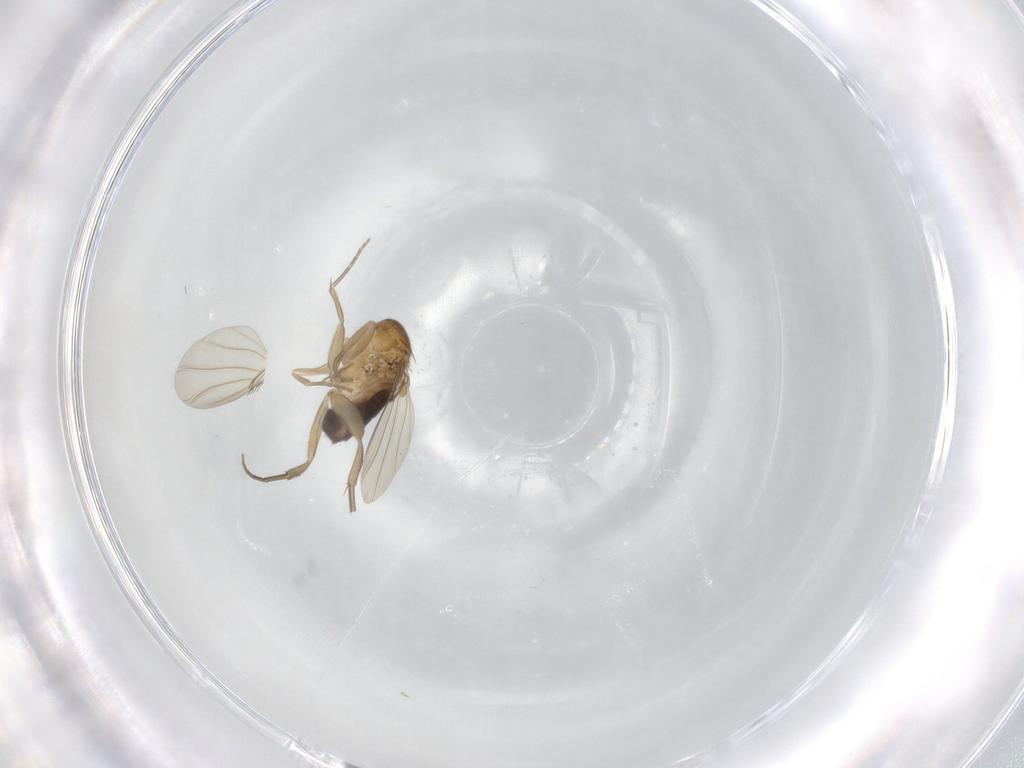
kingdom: Animalia
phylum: Arthropoda
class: Insecta
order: Diptera
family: Phoridae
